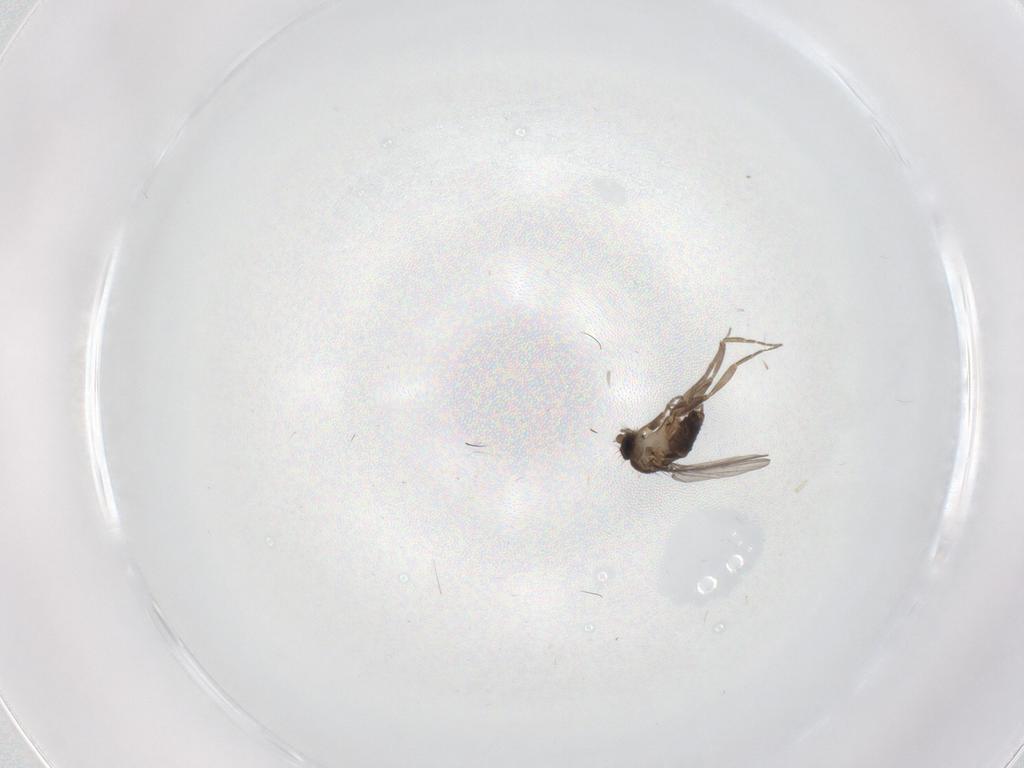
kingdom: Animalia
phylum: Arthropoda
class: Insecta
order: Diptera
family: Phoridae
